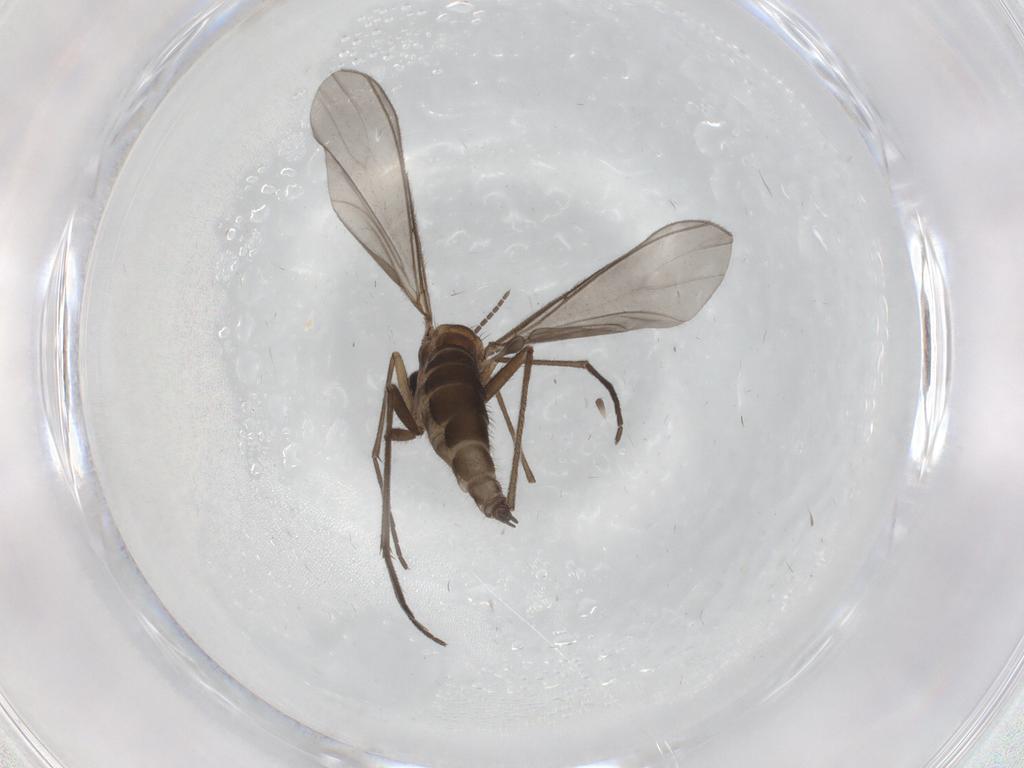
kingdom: Animalia
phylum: Arthropoda
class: Insecta
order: Diptera
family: Sciaridae
